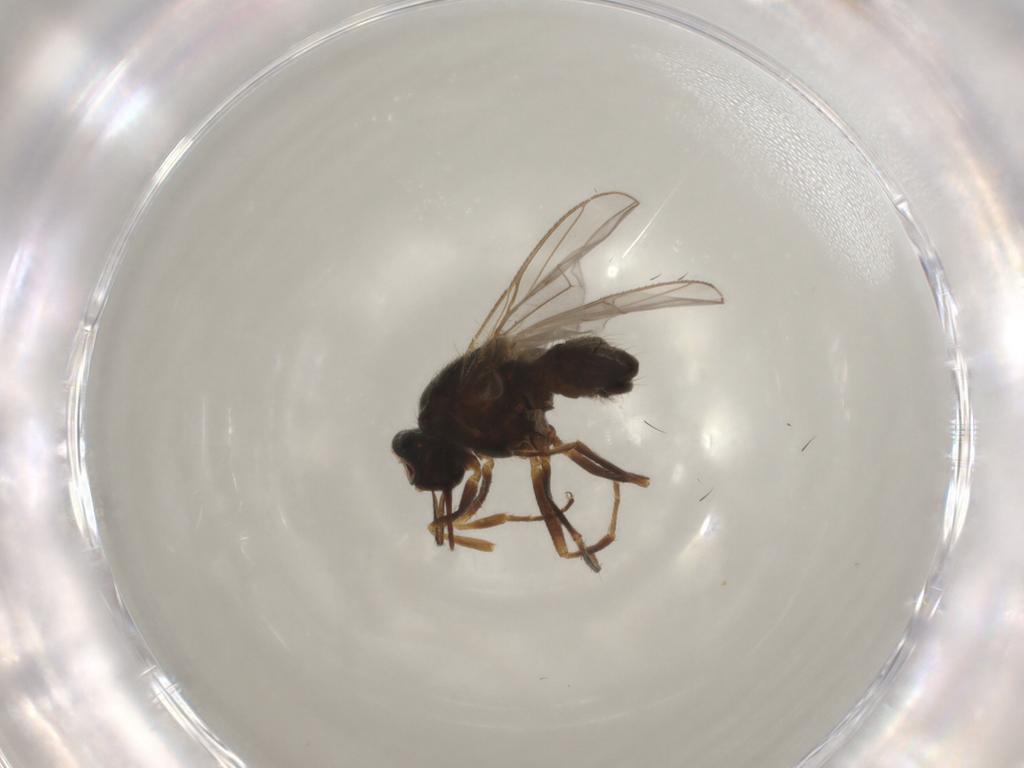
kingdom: Animalia
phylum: Arthropoda
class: Insecta
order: Diptera
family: Muscidae
